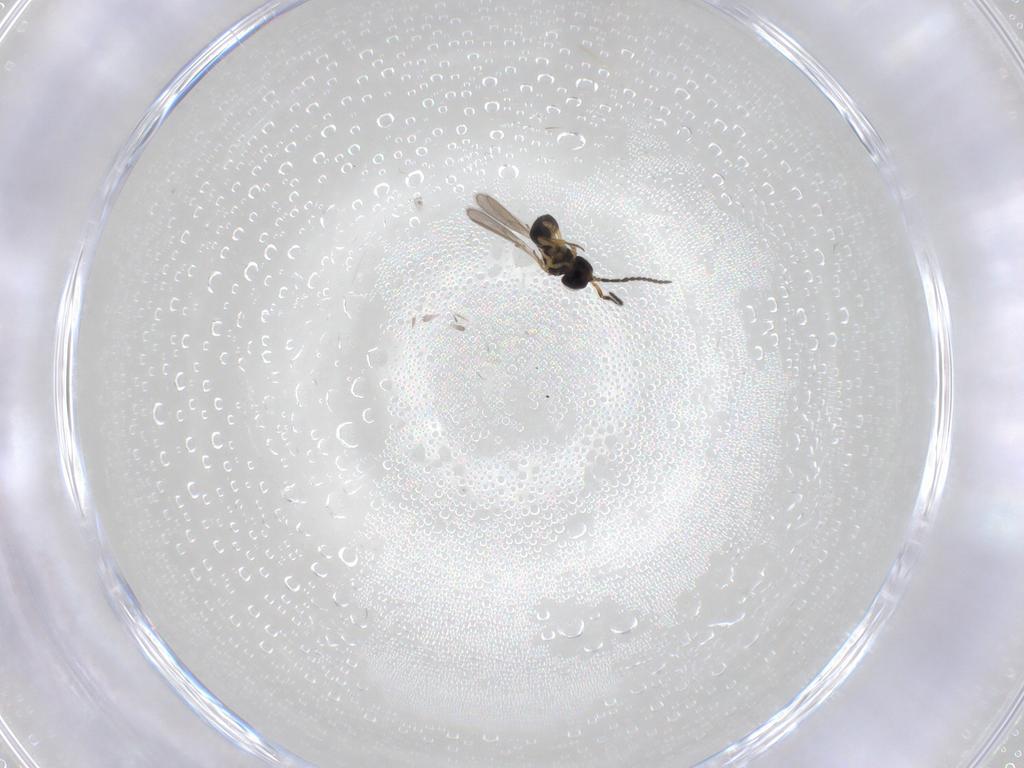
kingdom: Animalia
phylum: Arthropoda
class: Insecta
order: Hymenoptera
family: Scelionidae
